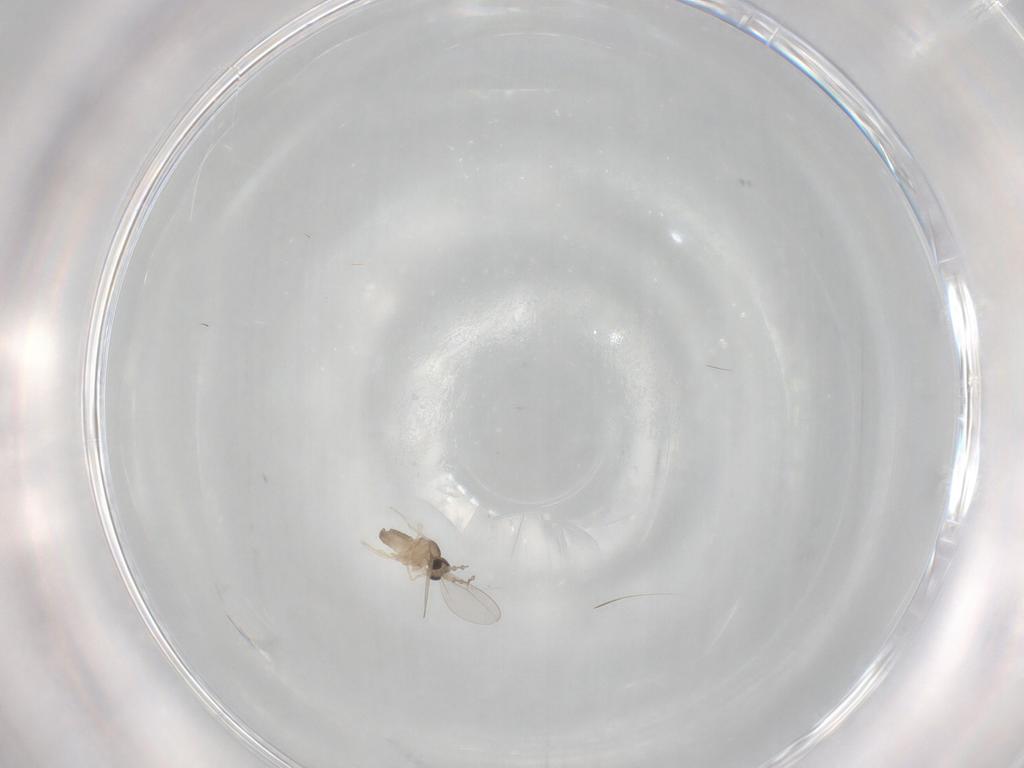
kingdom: Animalia
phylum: Arthropoda
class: Insecta
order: Diptera
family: Cecidomyiidae
